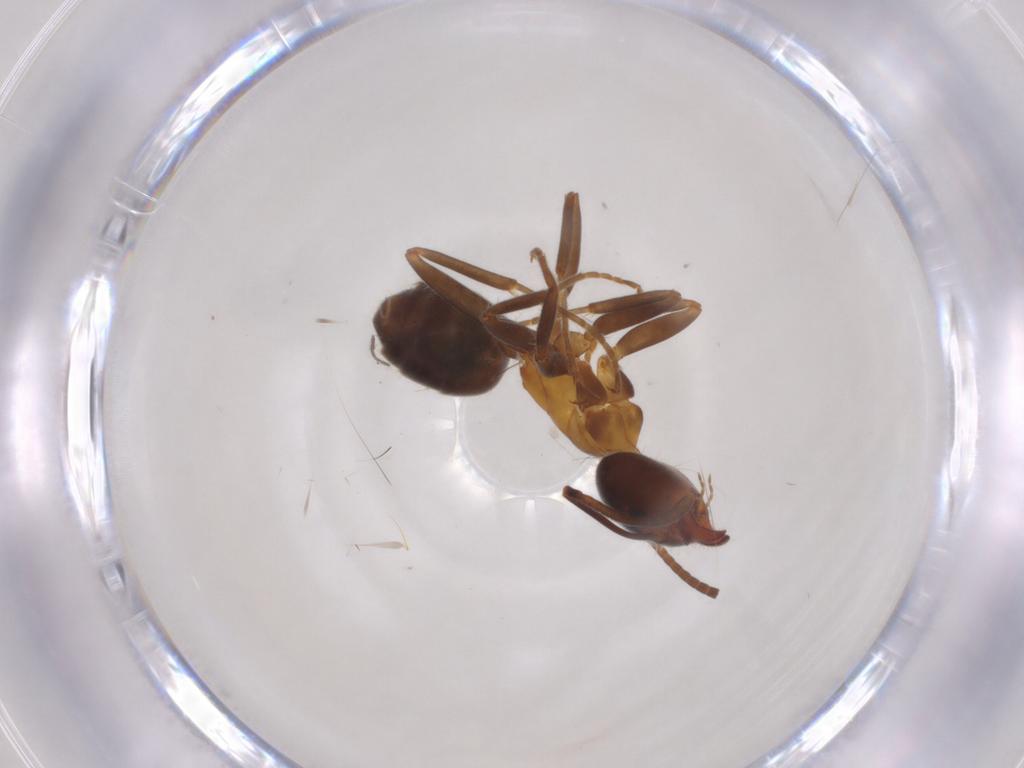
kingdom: Animalia
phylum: Arthropoda
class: Insecta
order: Hymenoptera
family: Formicidae
